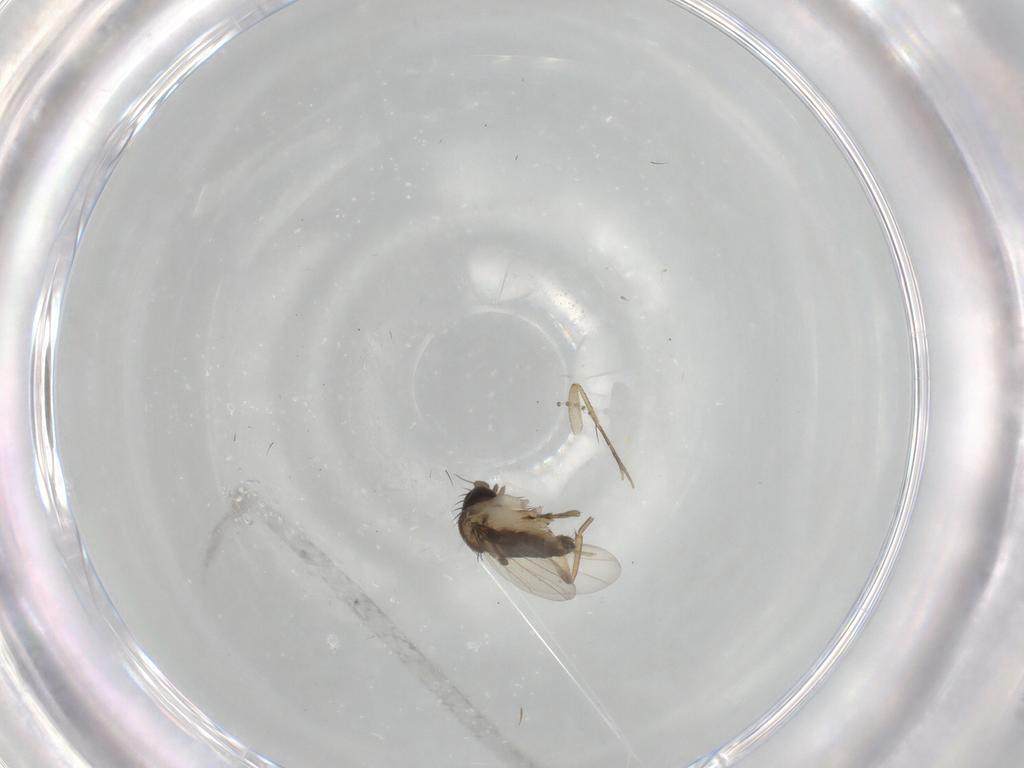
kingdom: Animalia
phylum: Arthropoda
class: Insecta
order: Diptera
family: Phoridae
